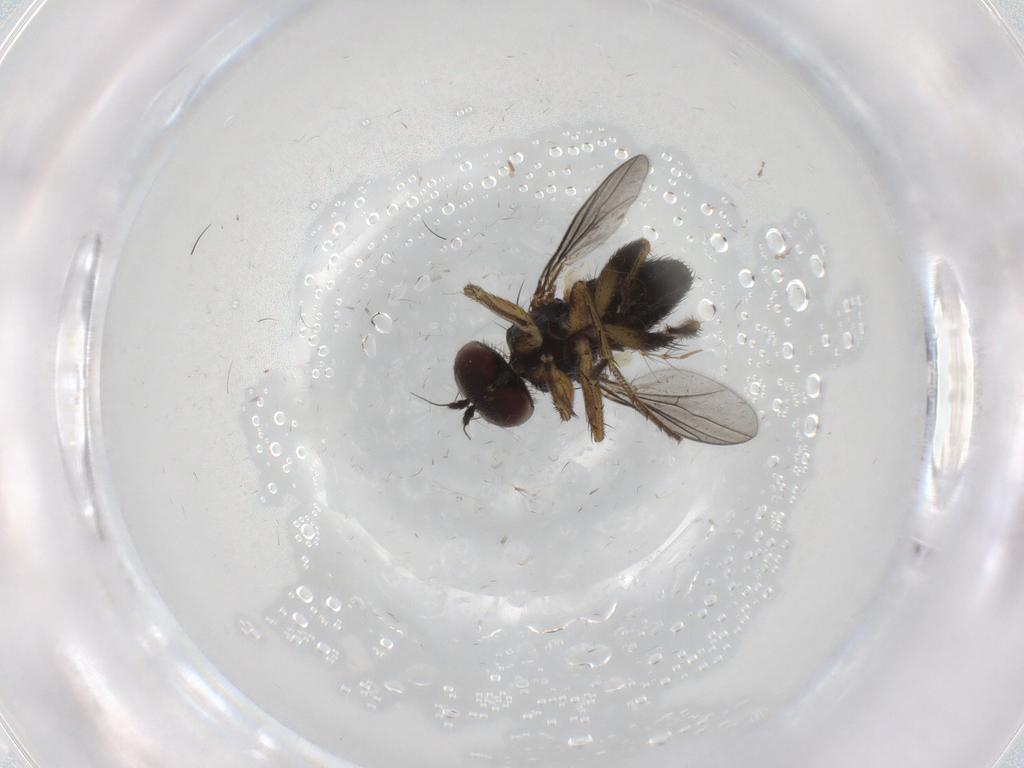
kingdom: Animalia
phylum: Arthropoda
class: Insecta
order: Diptera
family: Dolichopodidae
